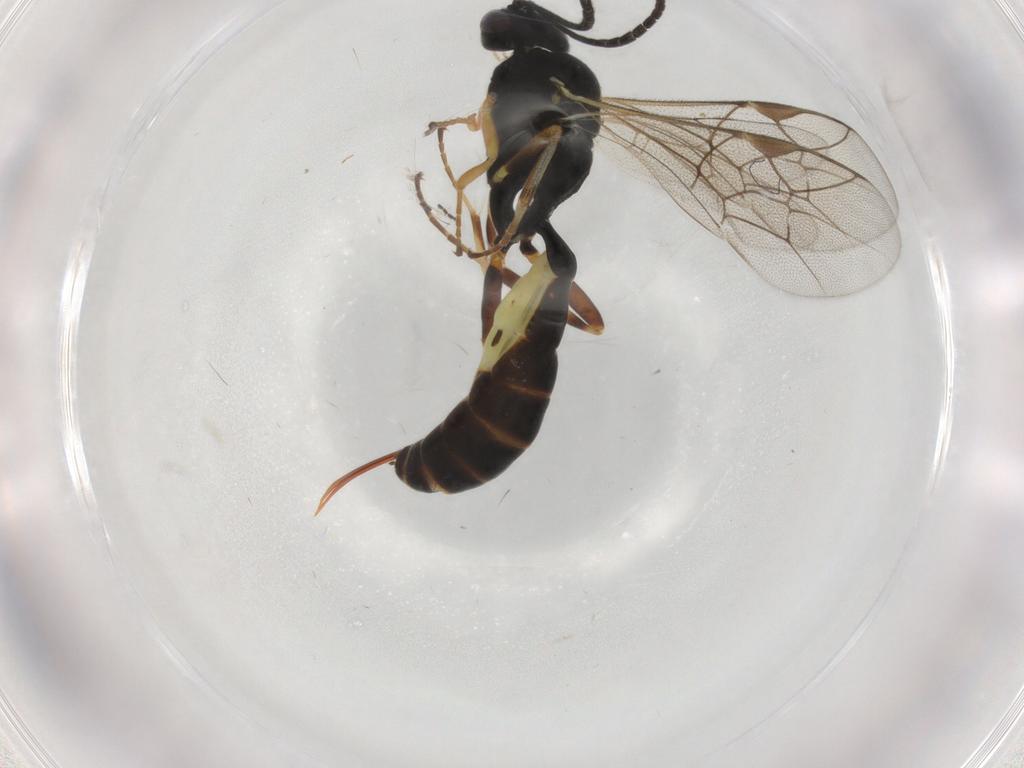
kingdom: Animalia
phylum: Arthropoda
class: Insecta
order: Hymenoptera
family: Ichneumonidae
